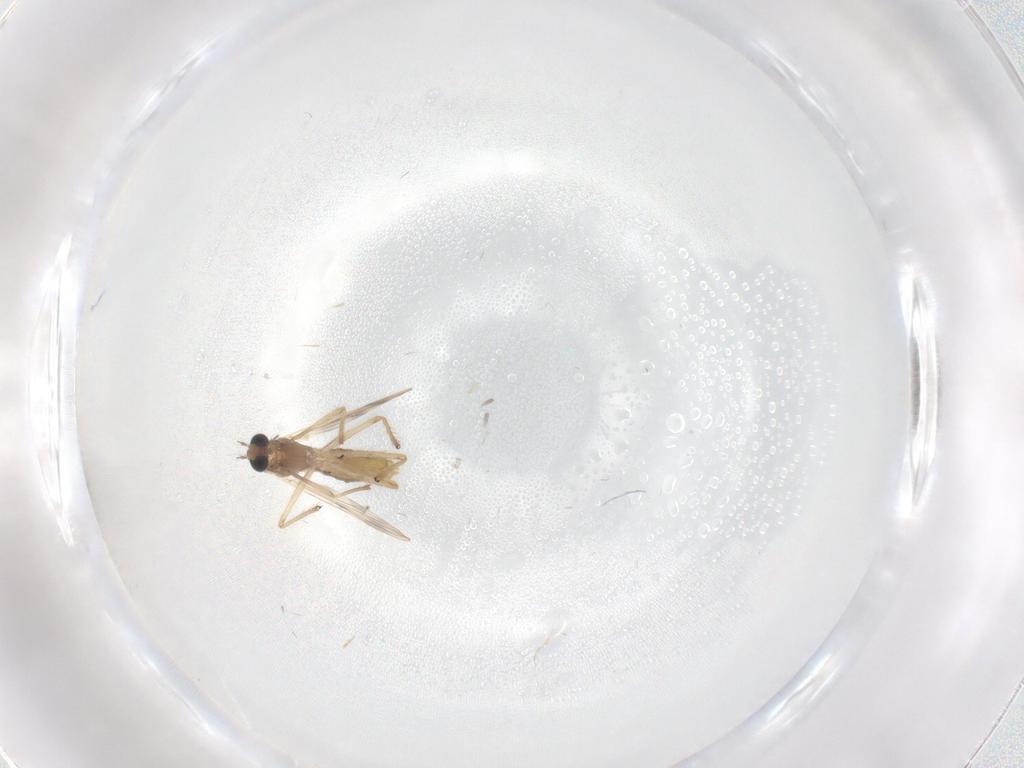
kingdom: Animalia
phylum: Arthropoda
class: Insecta
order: Diptera
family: Chironomidae
